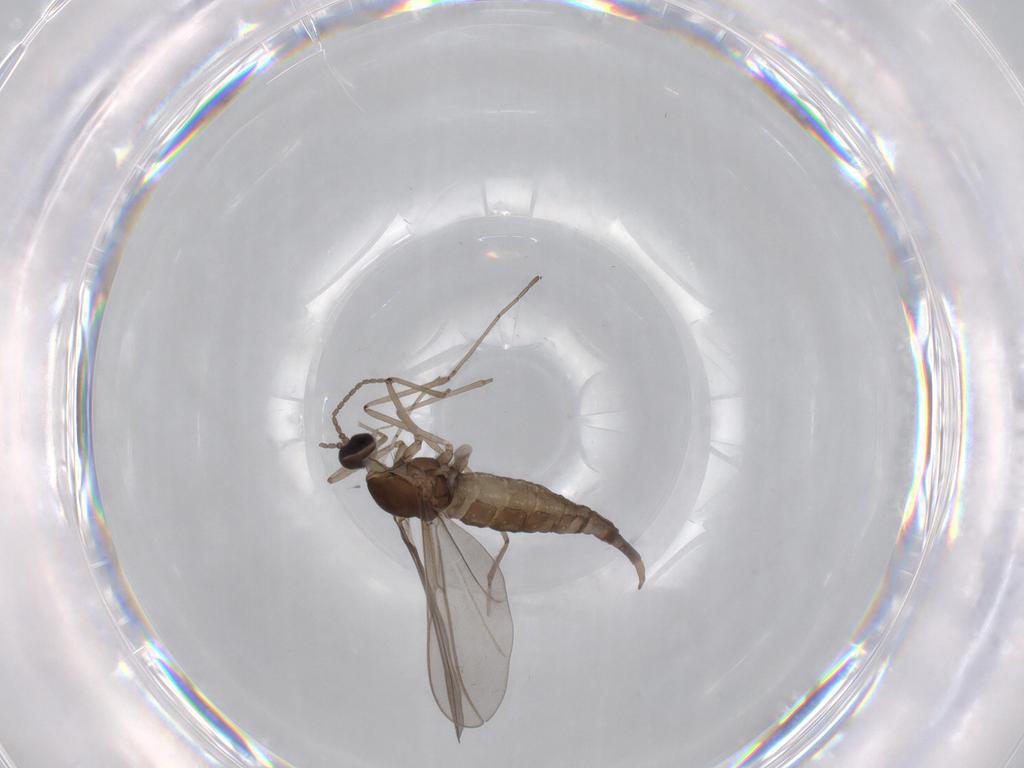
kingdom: Animalia
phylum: Arthropoda
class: Insecta
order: Diptera
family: Cecidomyiidae
